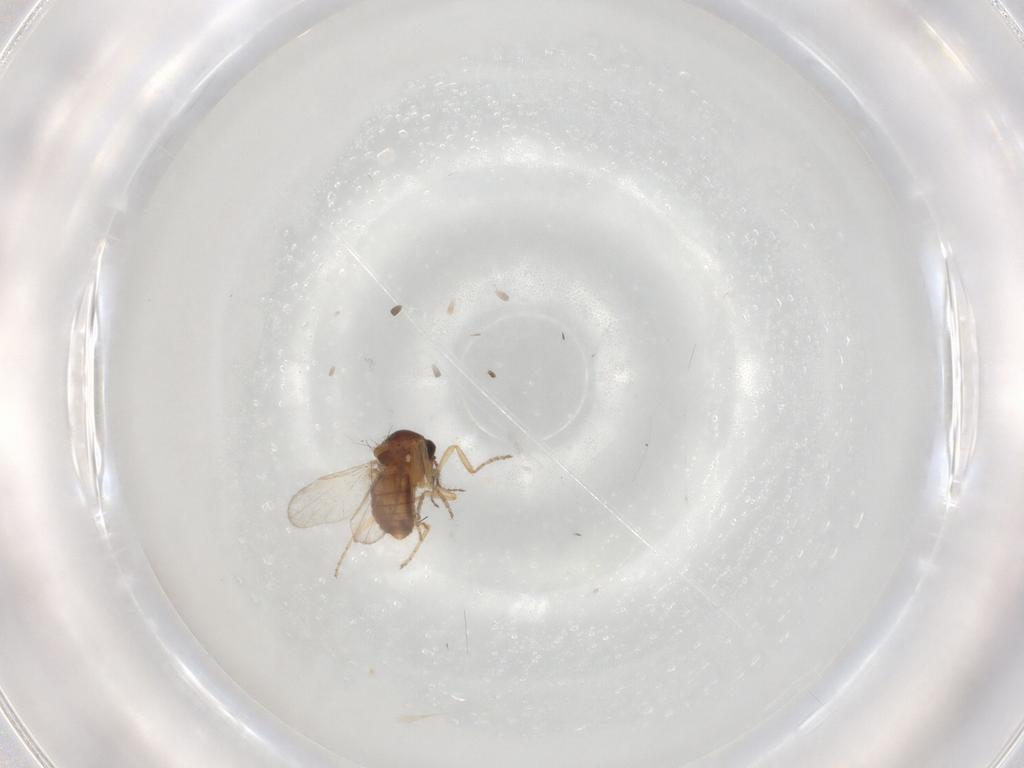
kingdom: Animalia
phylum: Arthropoda
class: Insecta
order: Diptera
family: Ceratopogonidae
